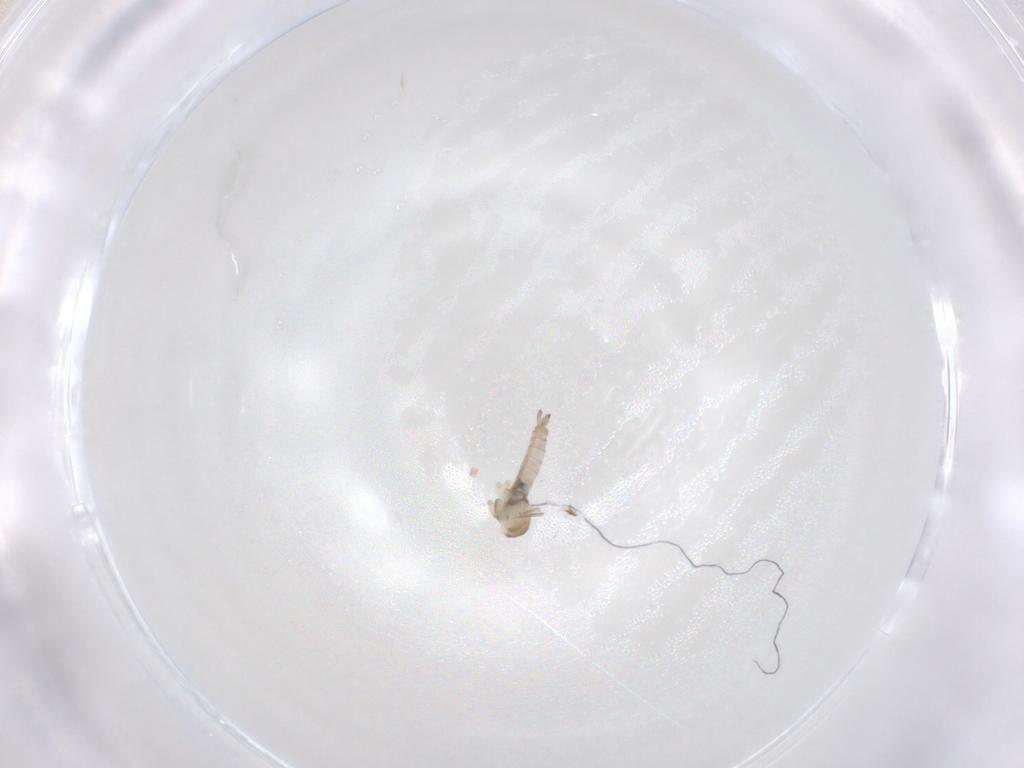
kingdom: Animalia
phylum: Arthropoda
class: Insecta
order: Diptera
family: Cecidomyiidae
